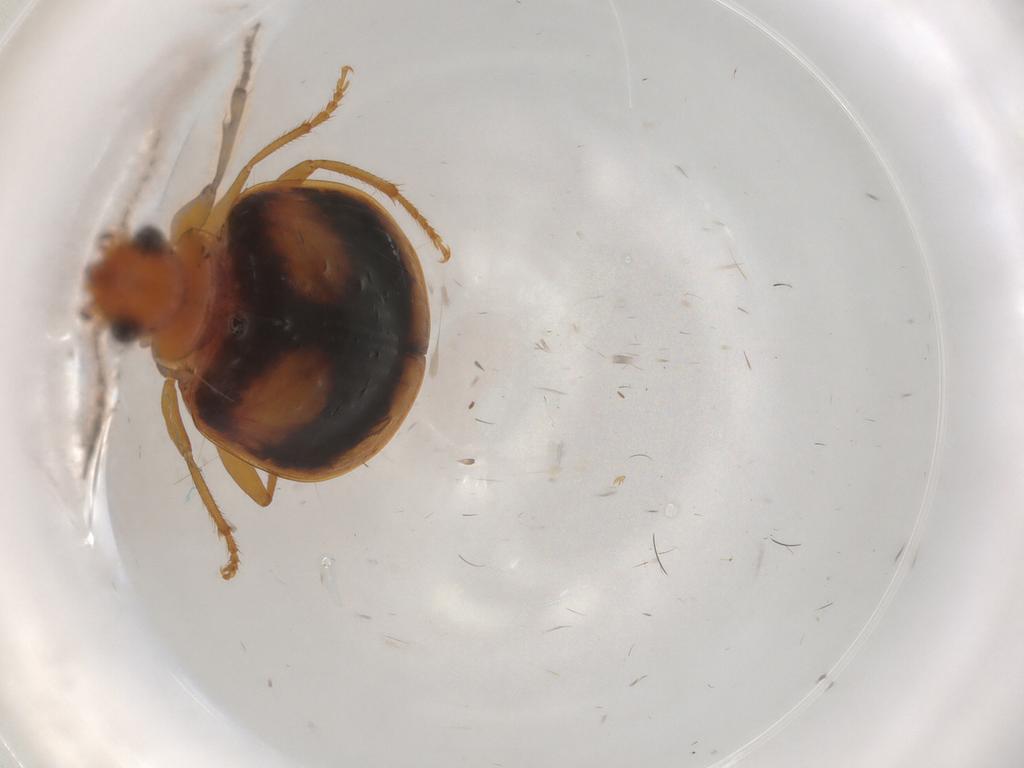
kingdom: Animalia
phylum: Arthropoda
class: Insecta
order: Coleoptera
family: Carabidae
